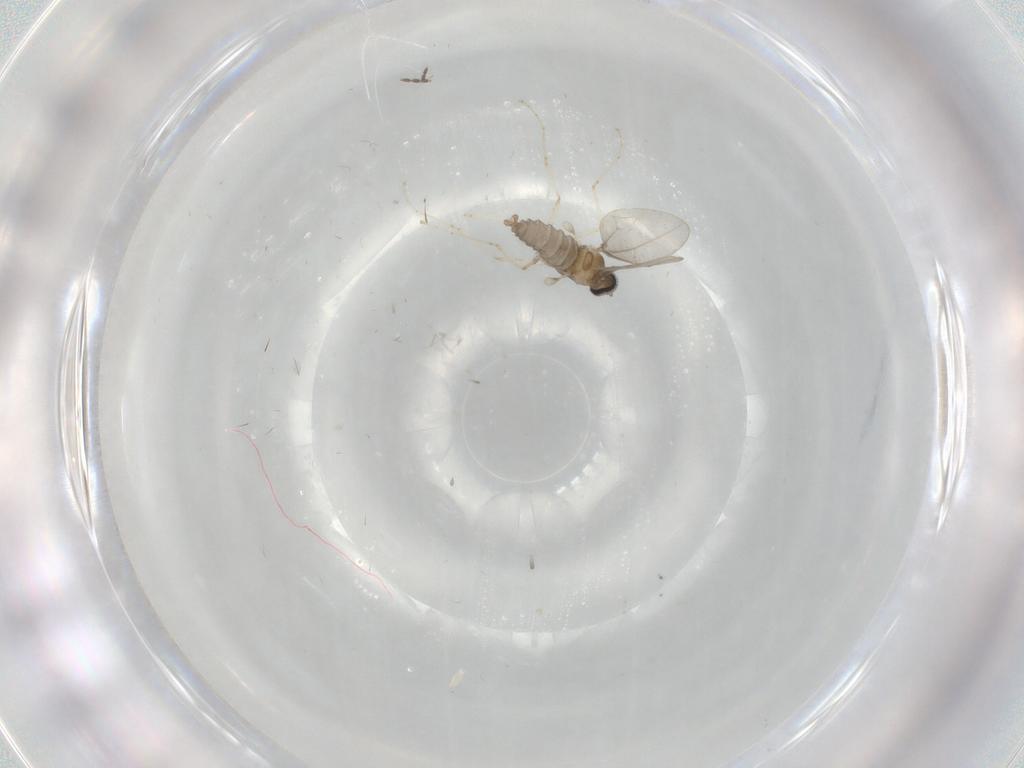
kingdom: Animalia
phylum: Arthropoda
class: Insecta
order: Diptera
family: Cecidomyiidae
